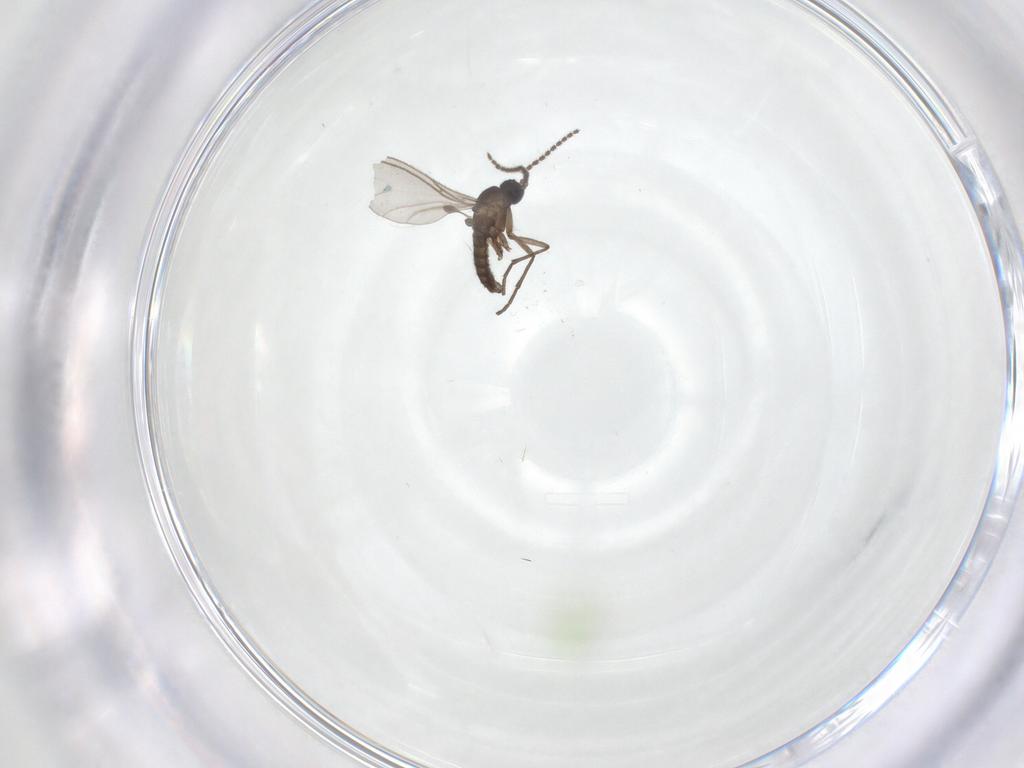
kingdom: Animalia
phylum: Arthropoda
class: Insecta
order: Diptera
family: Sciaridae
